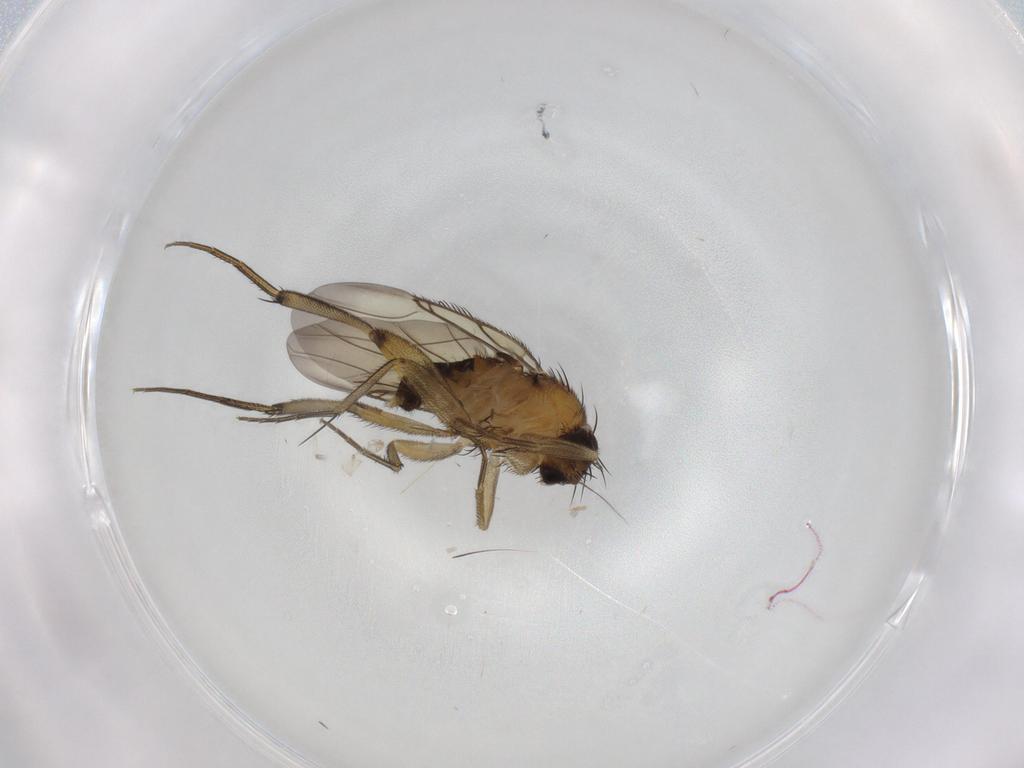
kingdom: Animalia
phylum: Arthropoda
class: Insecta
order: Diptera
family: Phoridae
